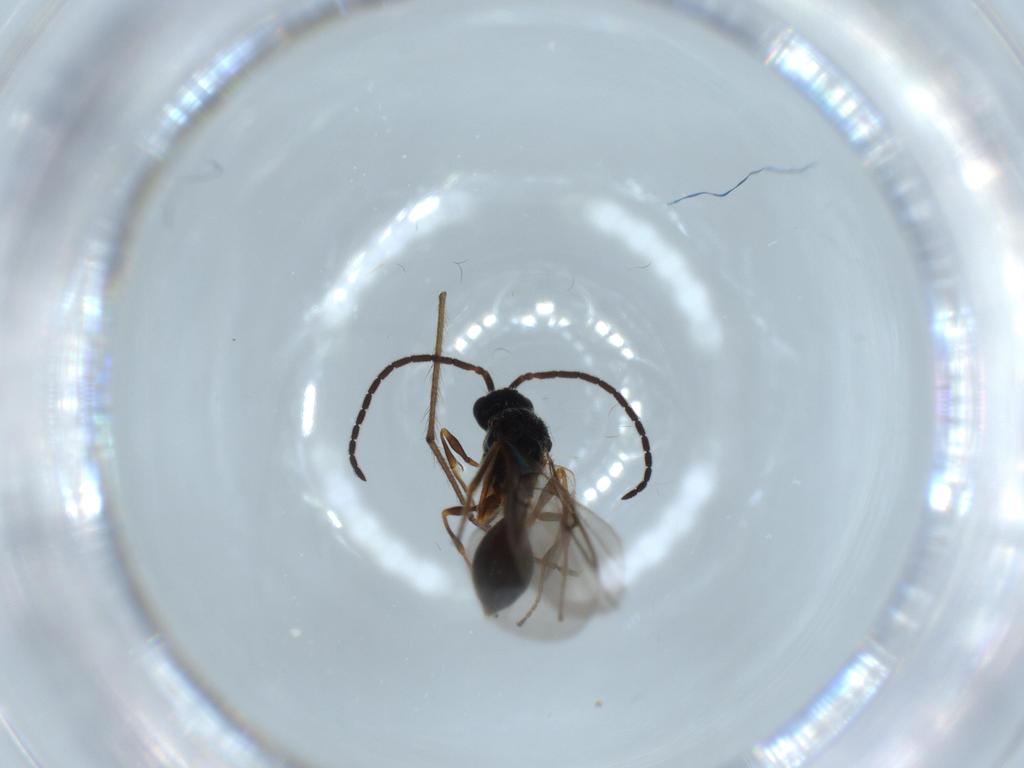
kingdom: Animalia
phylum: Arthropoda
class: Insecta
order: Hymenoptera
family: Diapriidae
